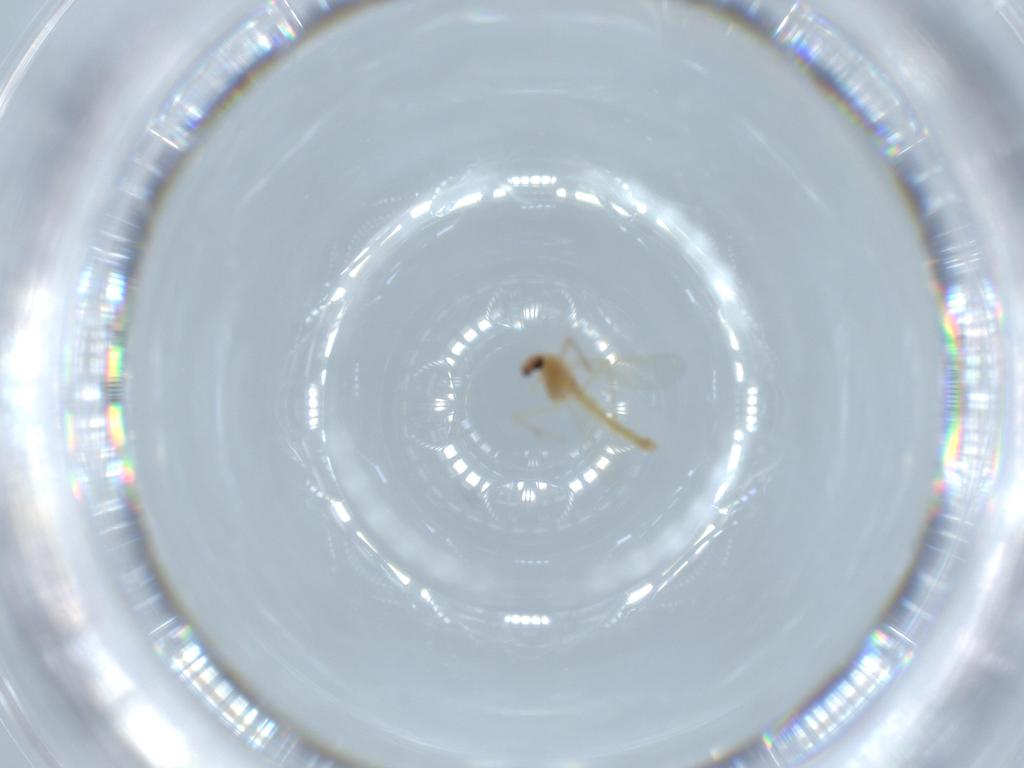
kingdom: Animalia
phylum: Arthropoda
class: Insecta
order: Diptera
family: Chironomidae
